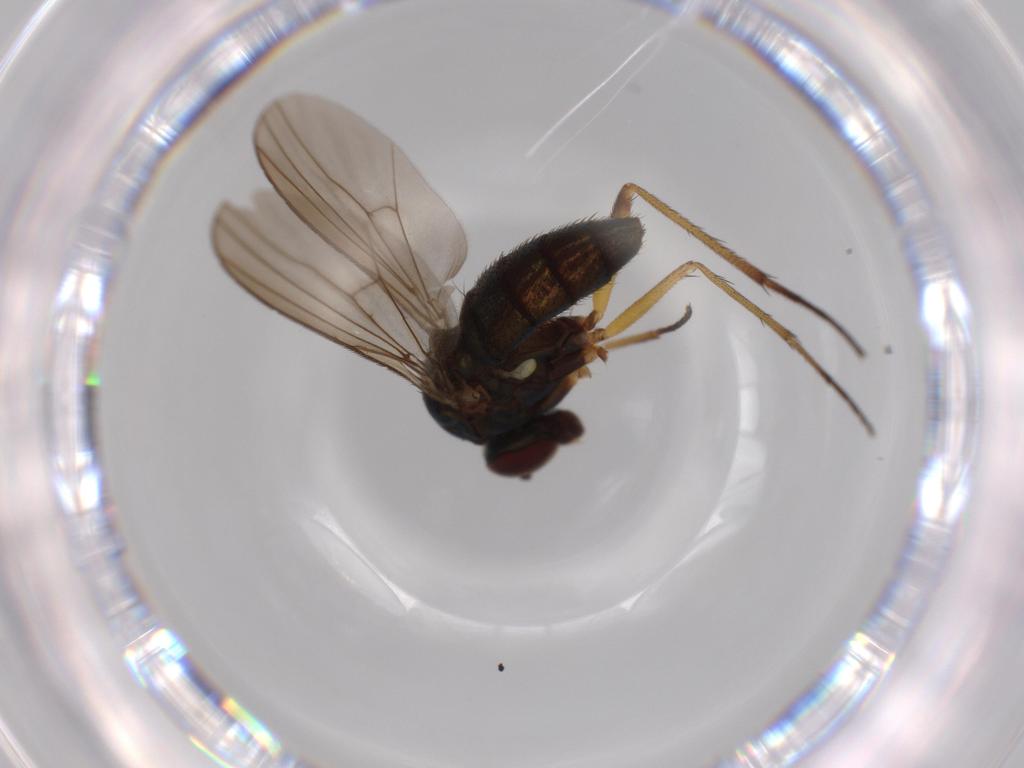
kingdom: Animalia
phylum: Arthropoda
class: Insecta
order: Diptera
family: Dolichopodidae
